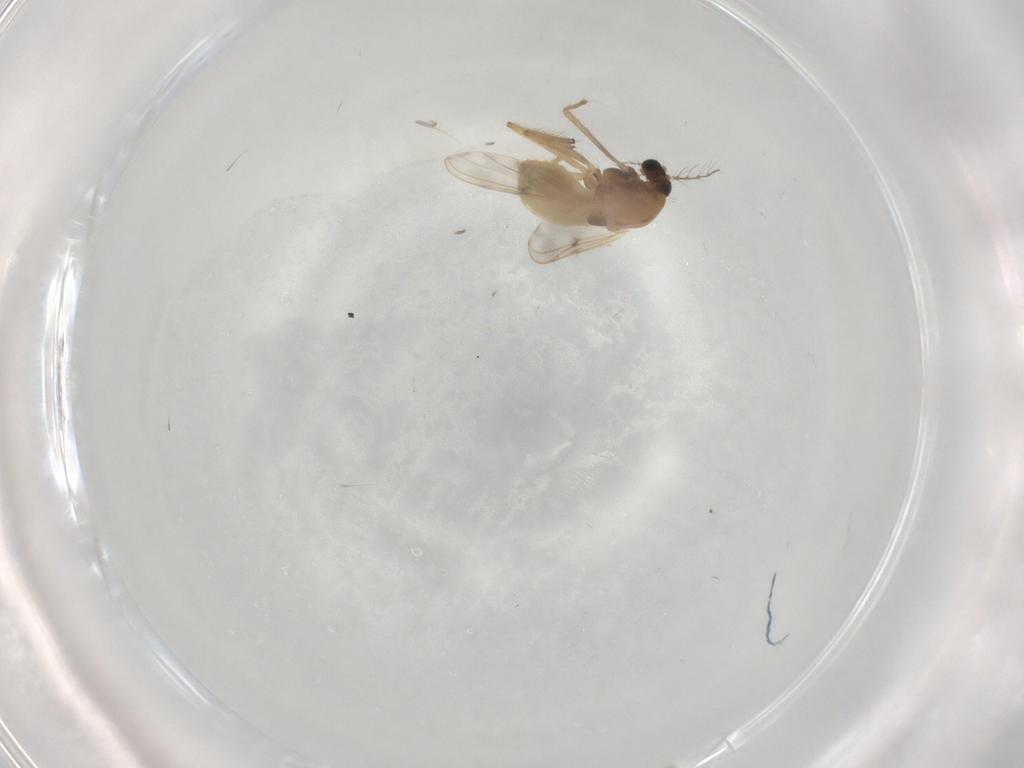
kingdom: Animalia
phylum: Arthropoda
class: Insecta
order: Diptera
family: Chironomidae
